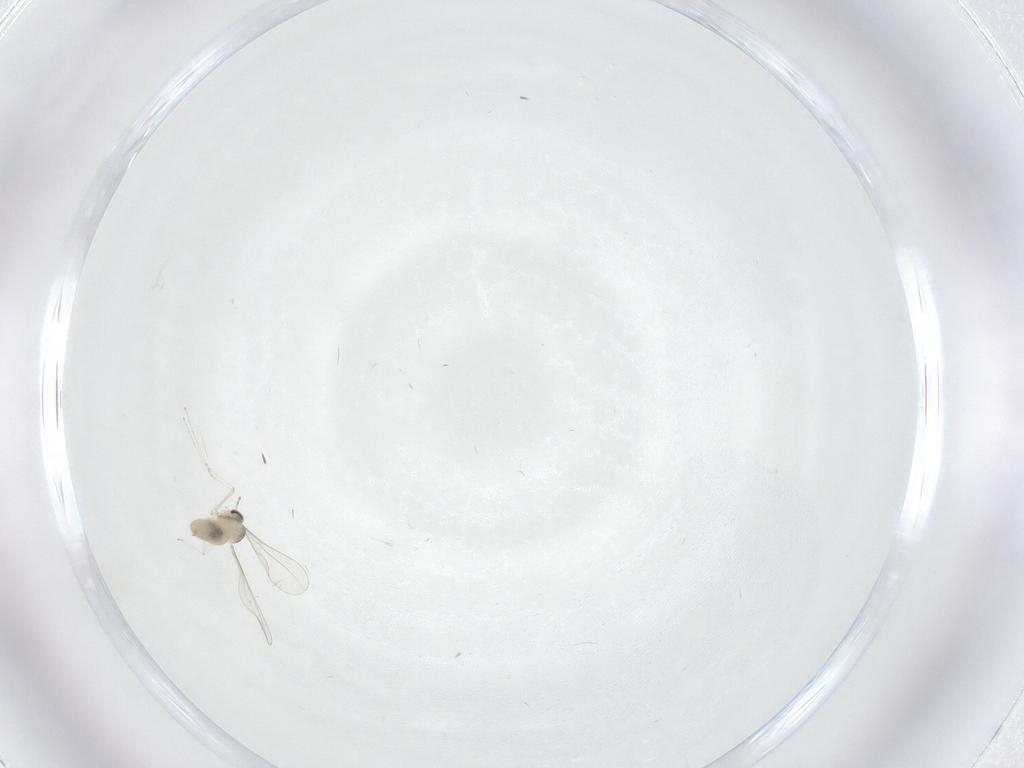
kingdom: Animalia
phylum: Arthropoda
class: Insecta
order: Diptera
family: Cecidomyiidae
